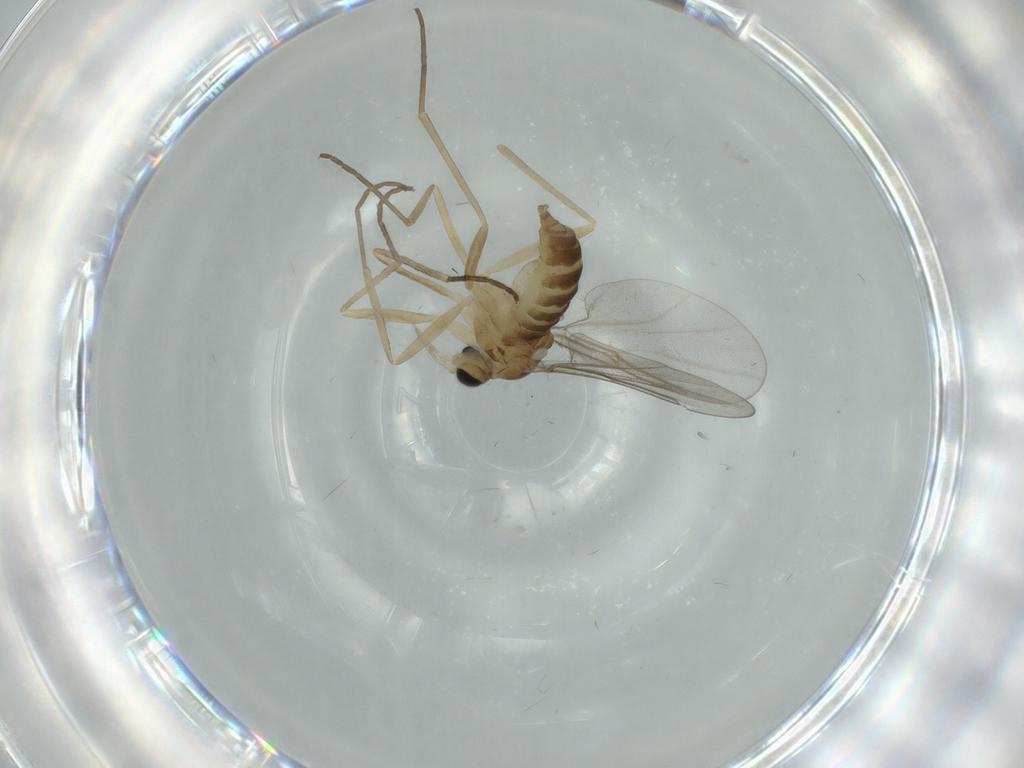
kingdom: Animalia
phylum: Arthropoda
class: Insecta
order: Diptera
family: Cecidomyiidae
